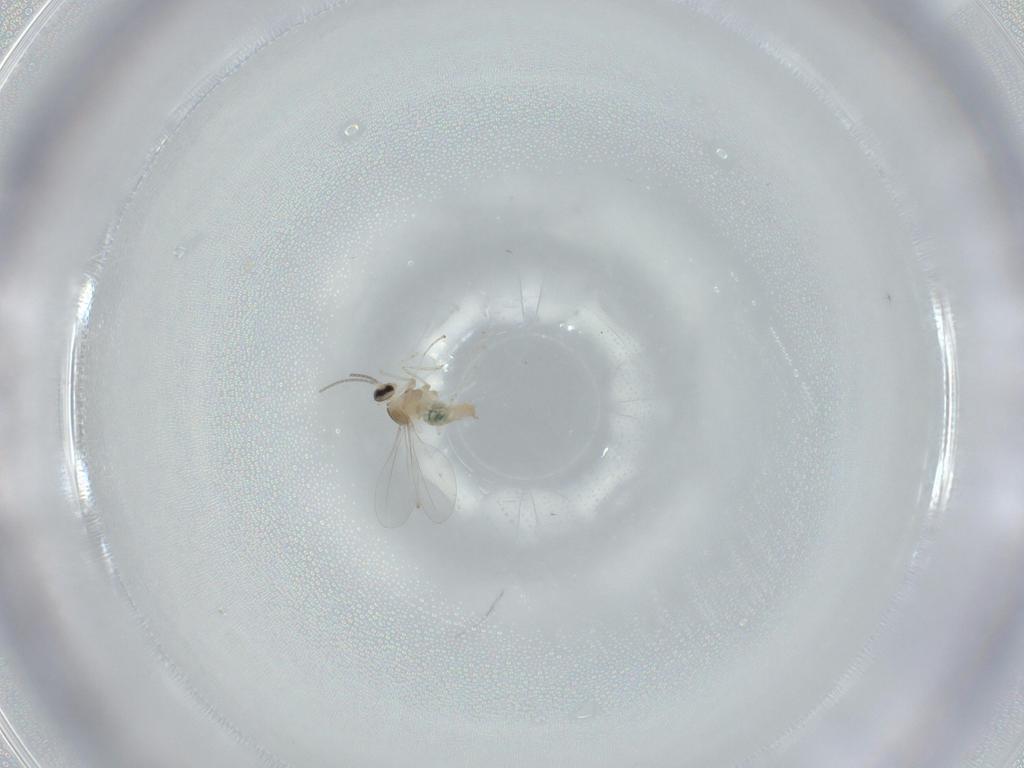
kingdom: Animalia
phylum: Arthropoda
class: Insecta
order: Diptera
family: Cecidomyiidae
